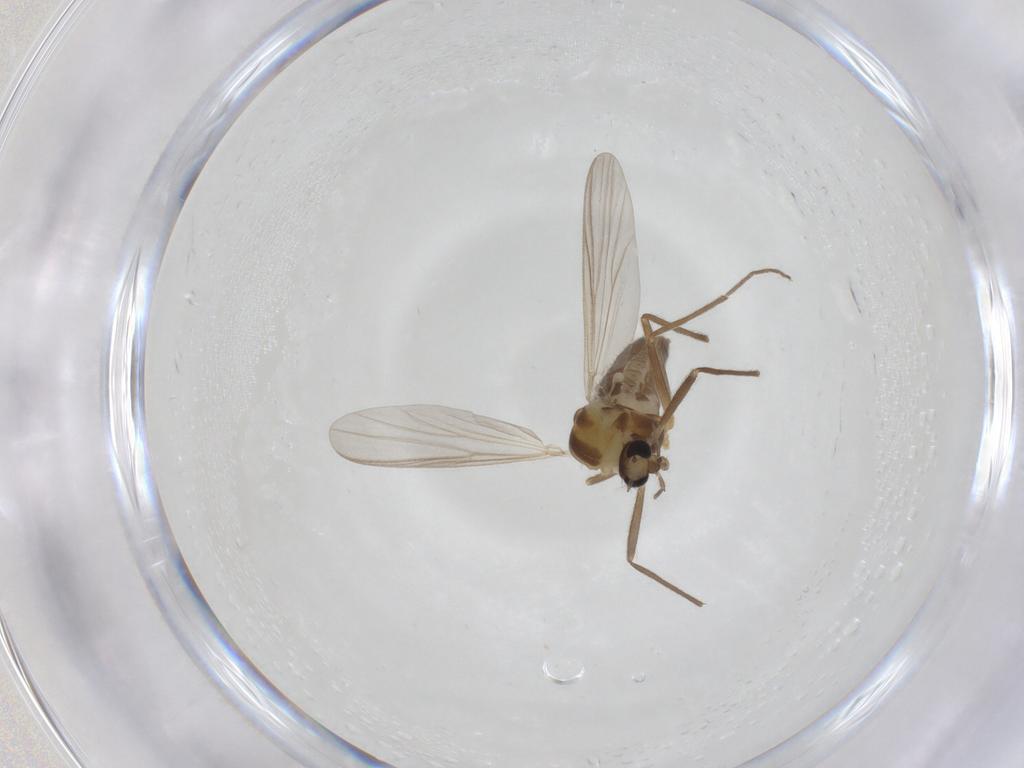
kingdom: Animalia
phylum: Arthropoda
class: Insecta
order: Diptera
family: Chironomidae
